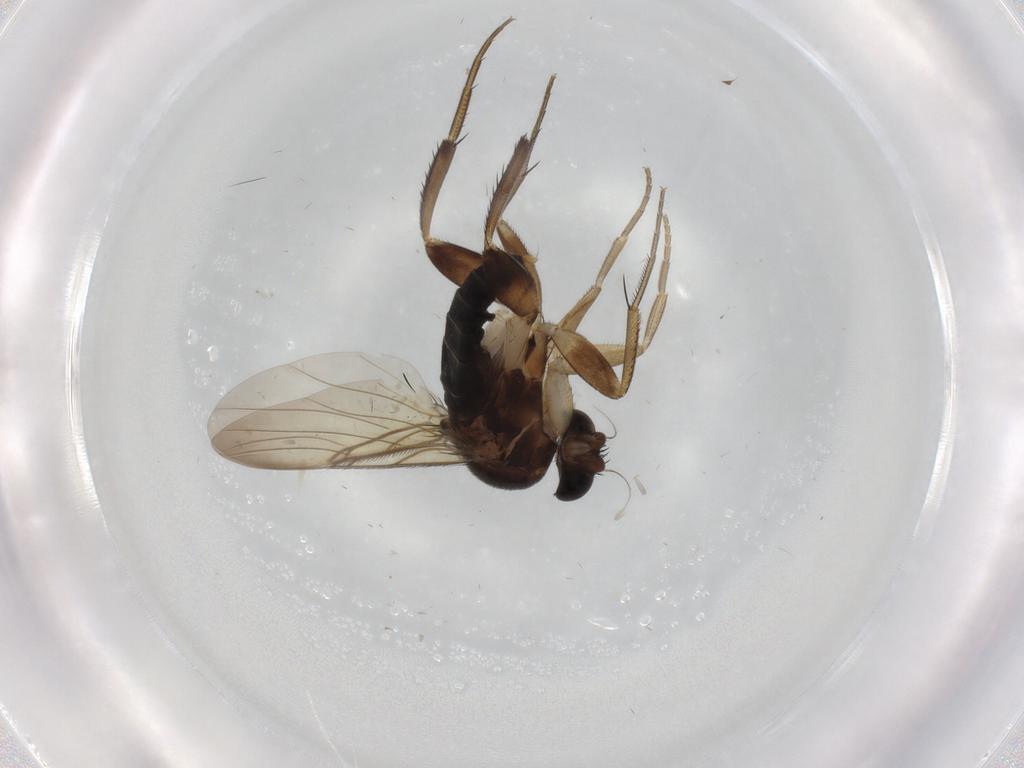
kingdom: Animalia
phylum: Arthropoda
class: Insecta
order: Diptera
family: Phoridae
